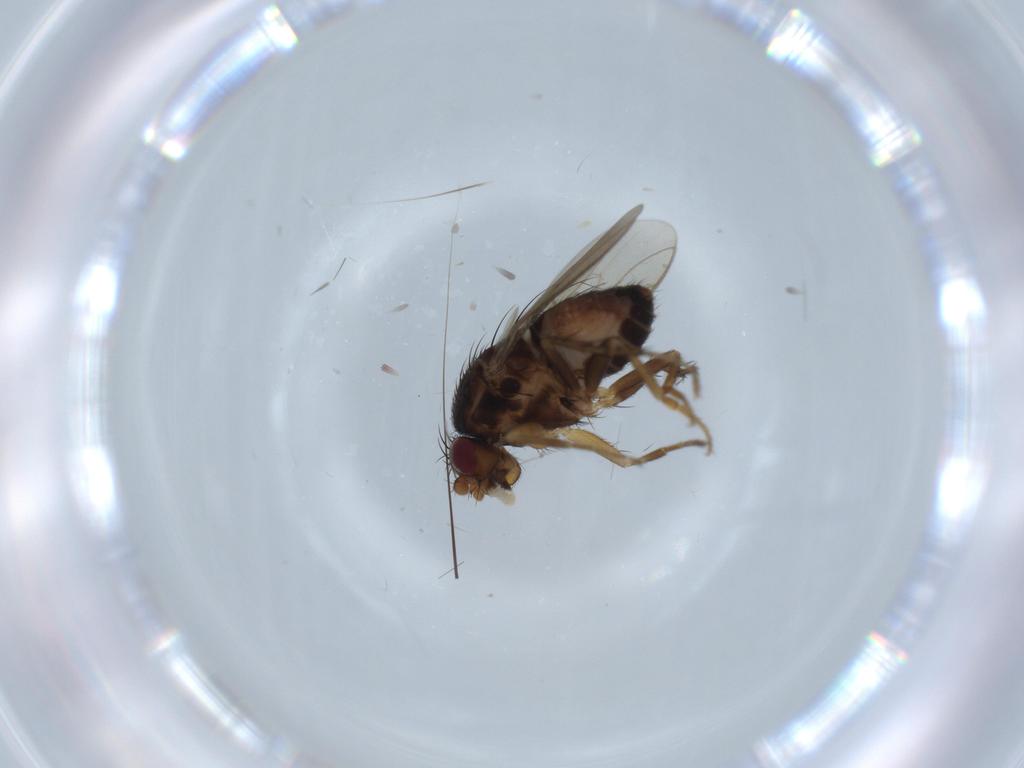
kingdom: Animalia
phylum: Arthropoda
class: Insecta
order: Diptera
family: Sphaeroceridae
